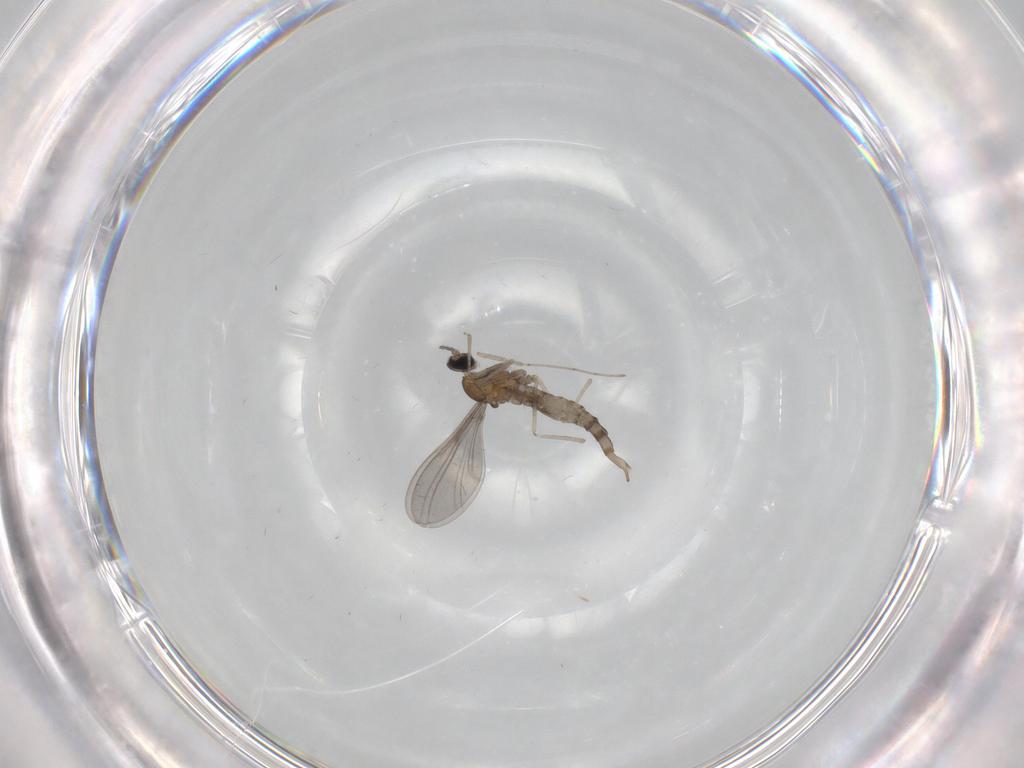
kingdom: Animalia
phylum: Arthropoda
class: Insecta
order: Diptera
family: Cecidomyiidae
